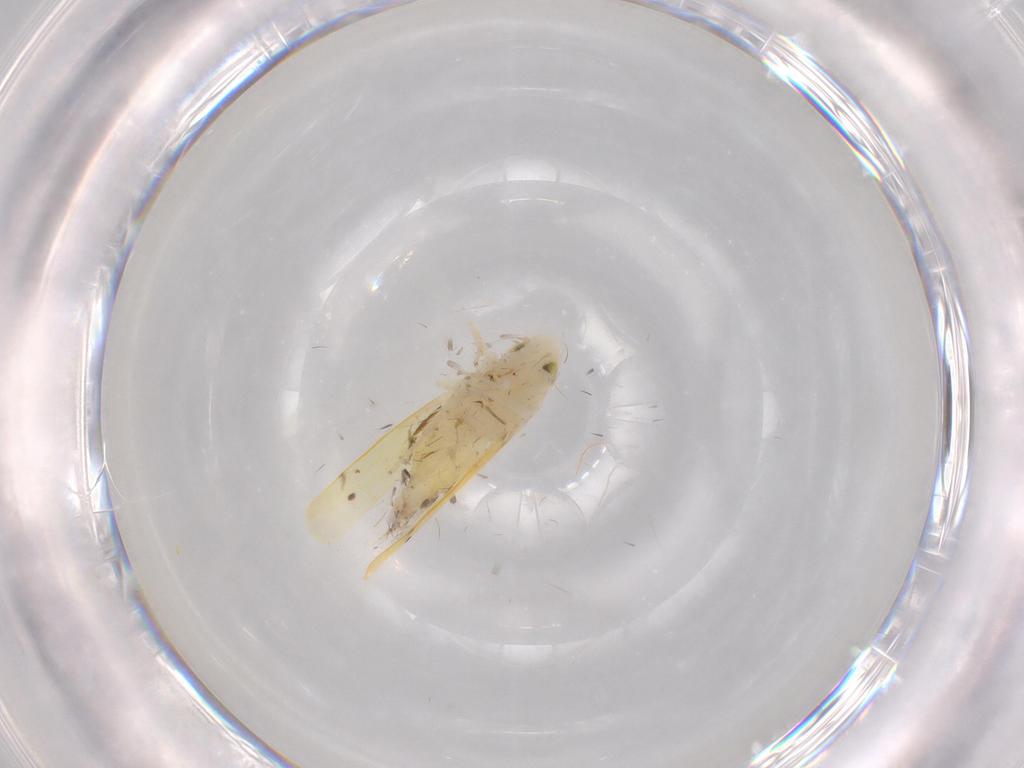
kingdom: Animalia
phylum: Arthropoda
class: Insecta
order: Hemiptera
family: Cicadellidae
